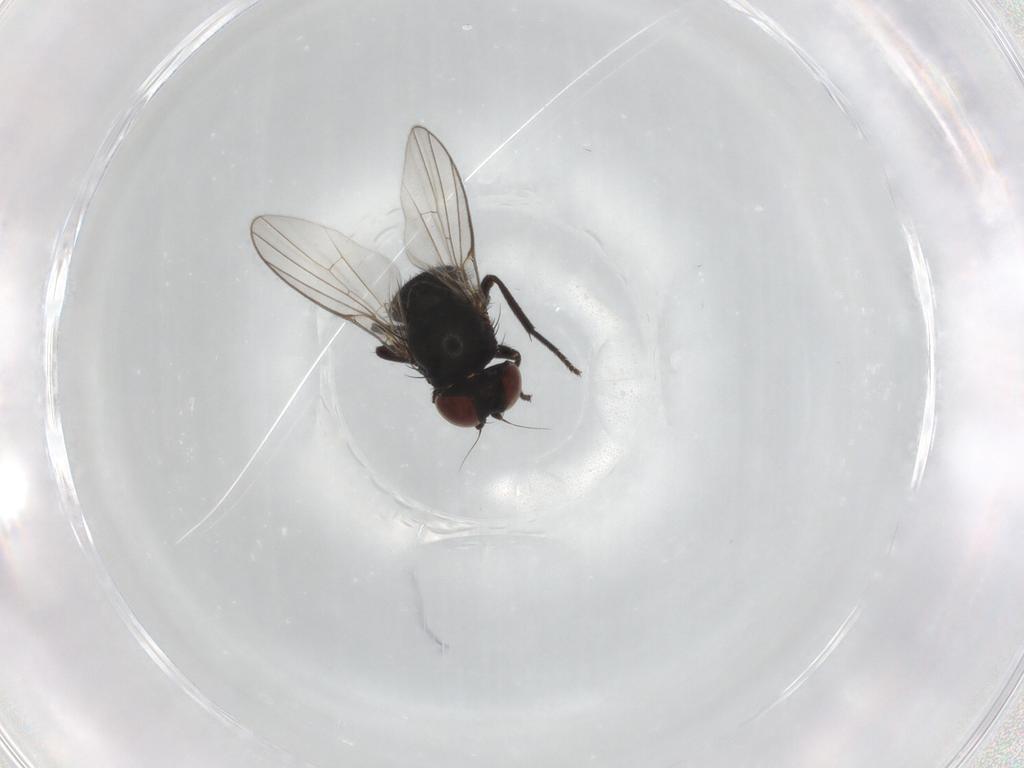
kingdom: Animalia
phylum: Arthropoda
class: Insecta
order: Diptera
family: Agromyzidae
